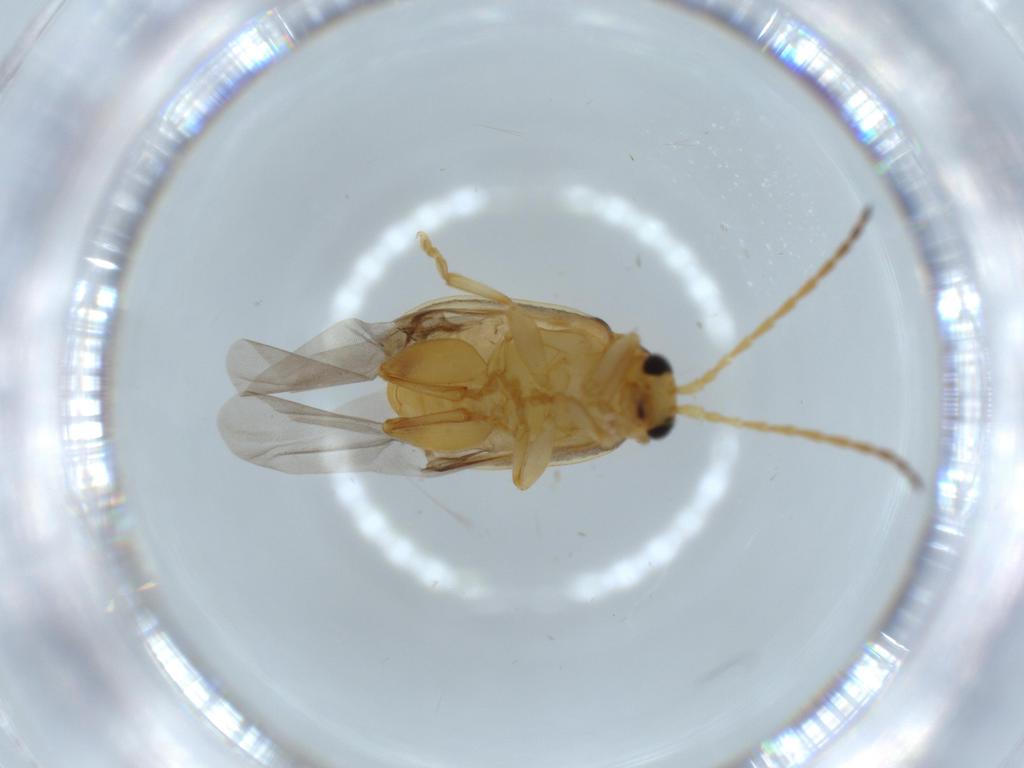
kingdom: Animalia
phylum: Arthropoda
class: Insecta
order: Coleoptera
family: Chrysomelidae
